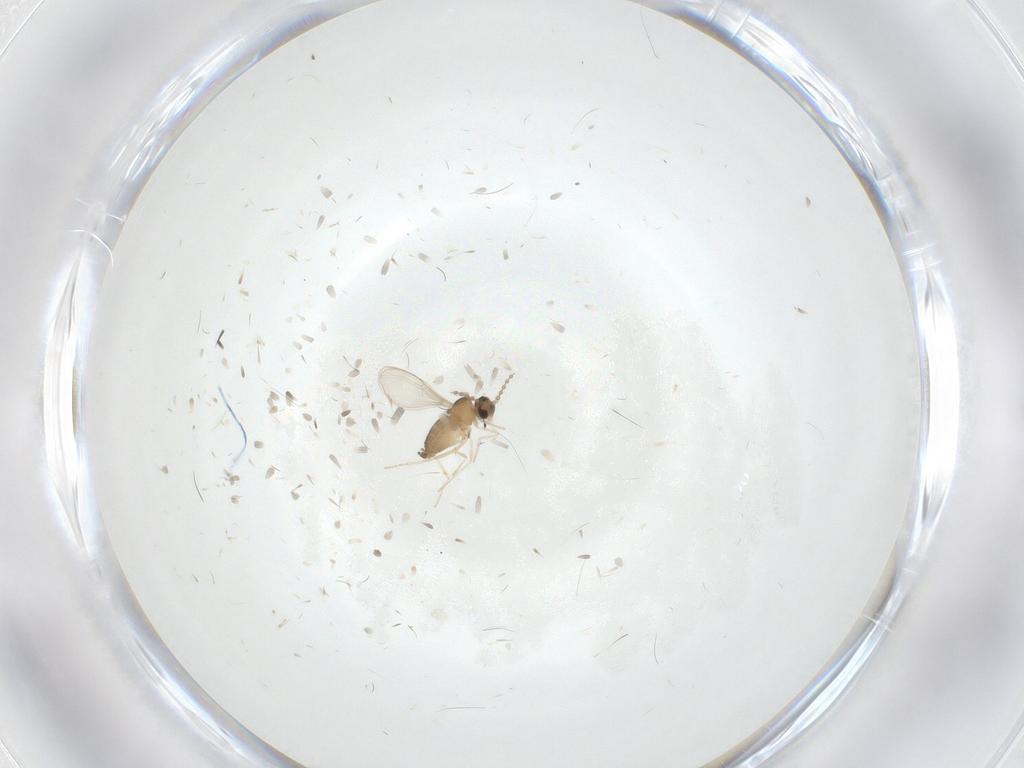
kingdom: Animalia
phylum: Arthropoda
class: Insecta
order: Diptera
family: Cecidomyiidae
